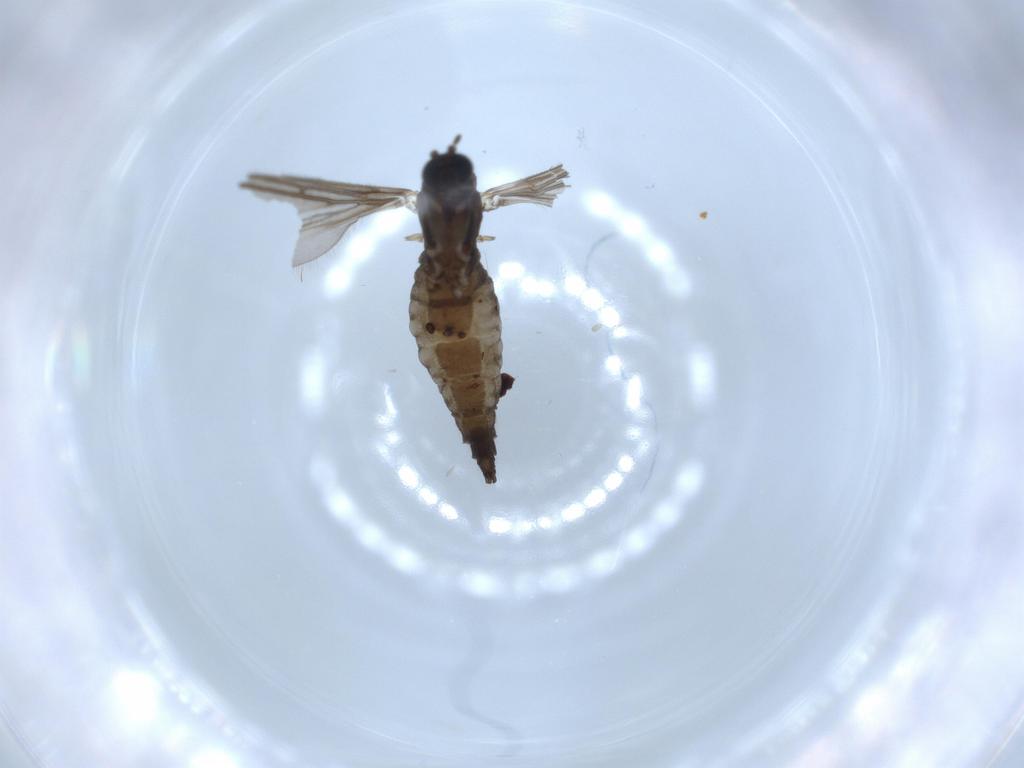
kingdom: Animalia
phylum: Arthropoda
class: Insecta
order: Diptera
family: Sciaridae
